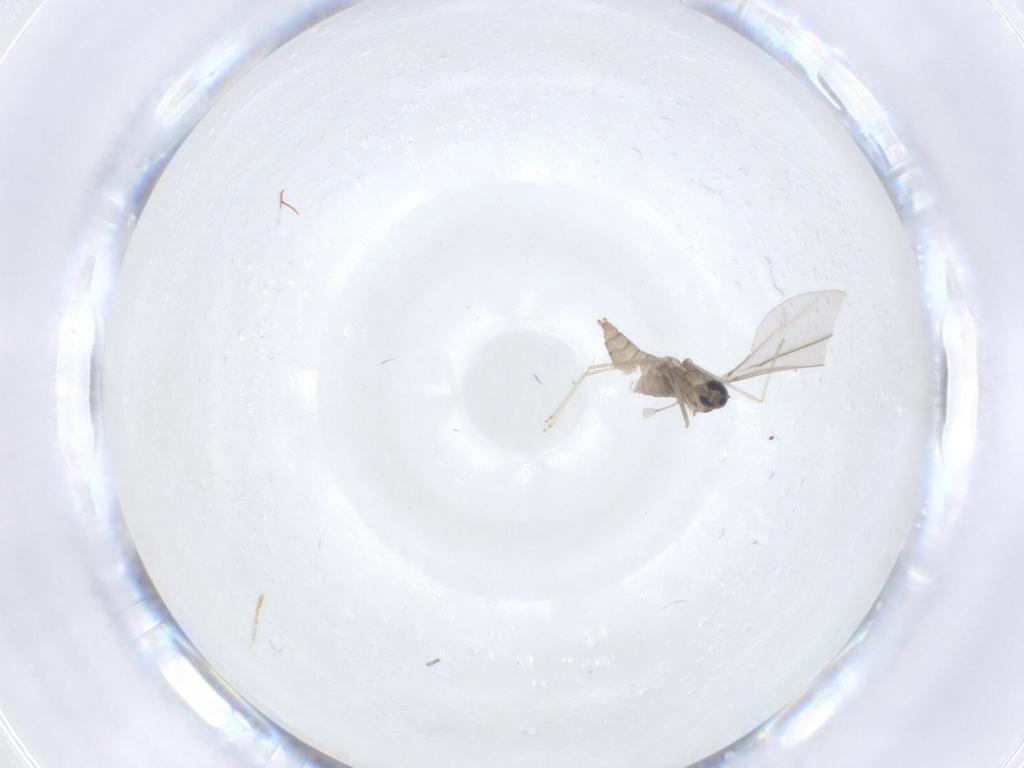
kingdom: Animalia
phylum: Arthropoda
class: Insecta
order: Diptera
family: Cecidomyiidae
